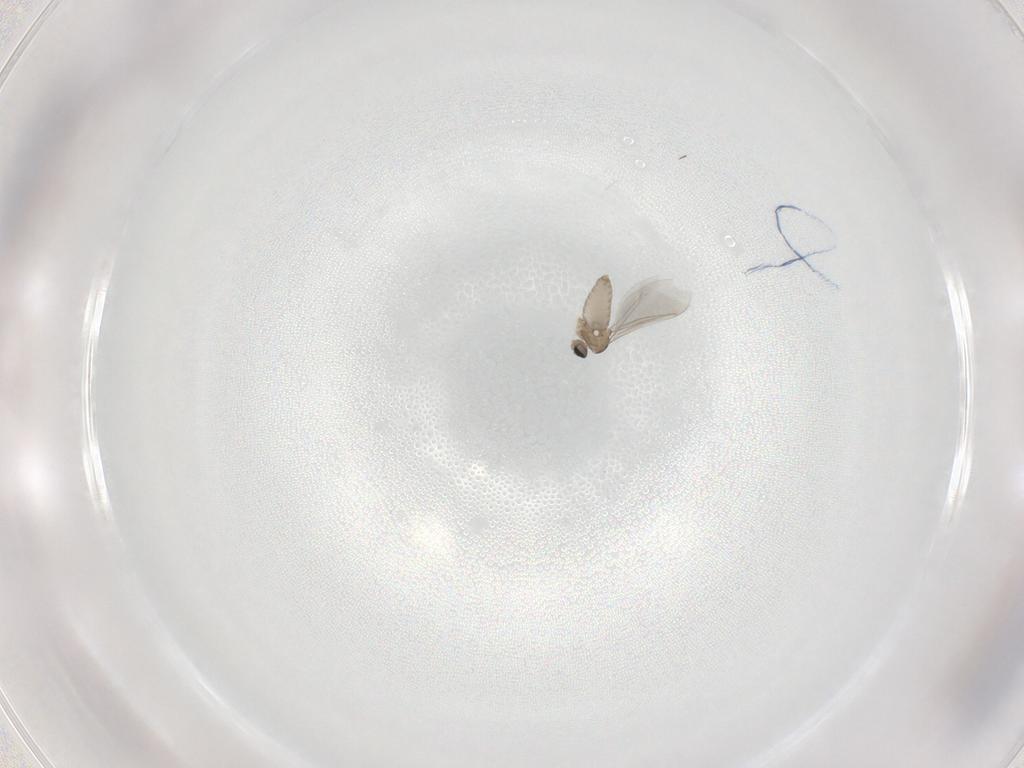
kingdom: Animalia
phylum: Arthropoda
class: Insecta
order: Diptera
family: Cecidomyiidae
